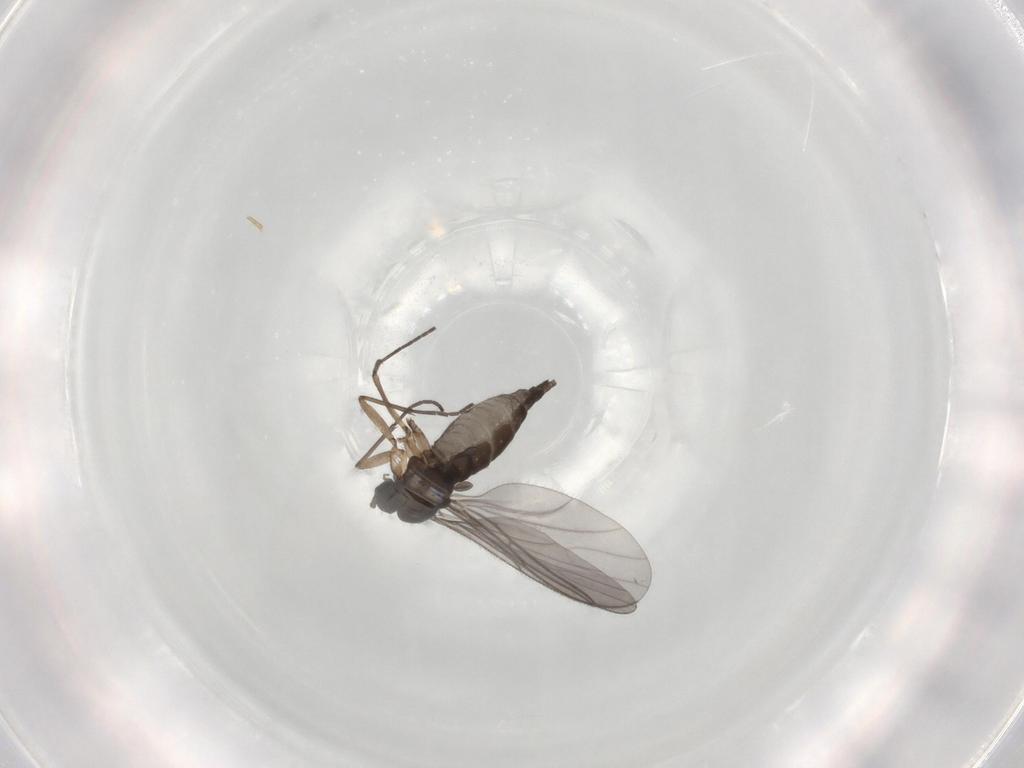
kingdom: Animalia
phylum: Arthropoda
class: Insecta
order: Diptera
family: Sciaridae
